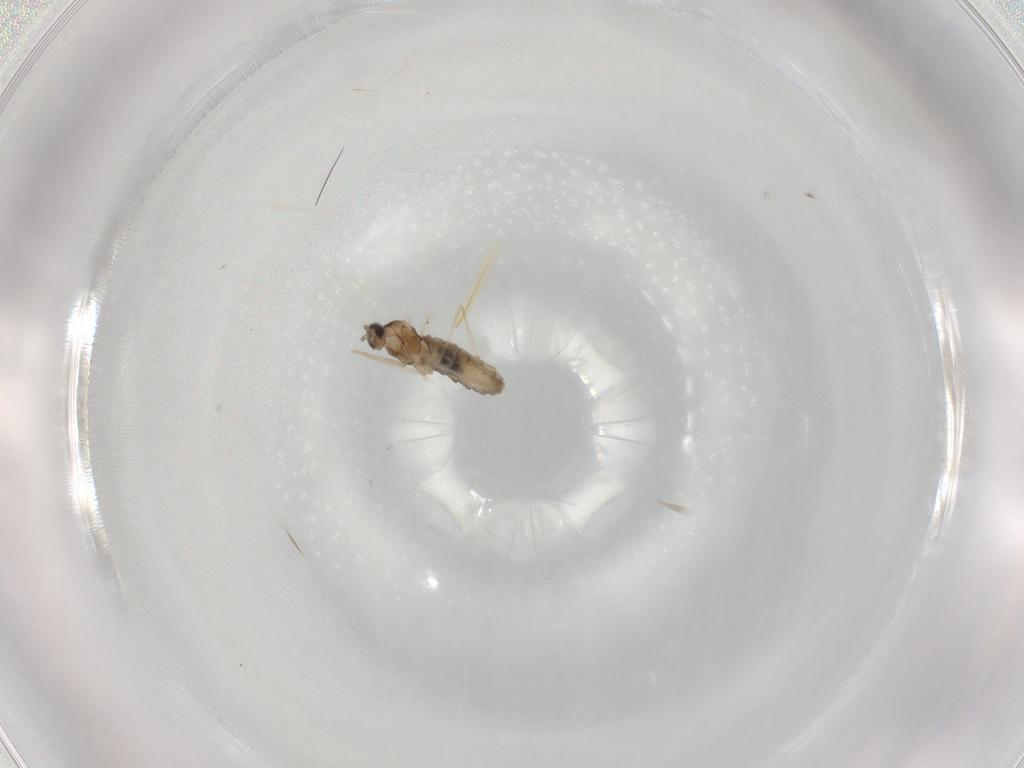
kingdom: Animalia
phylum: Arthropoda
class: Insecta
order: Diptera
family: Cecidomyiidae
